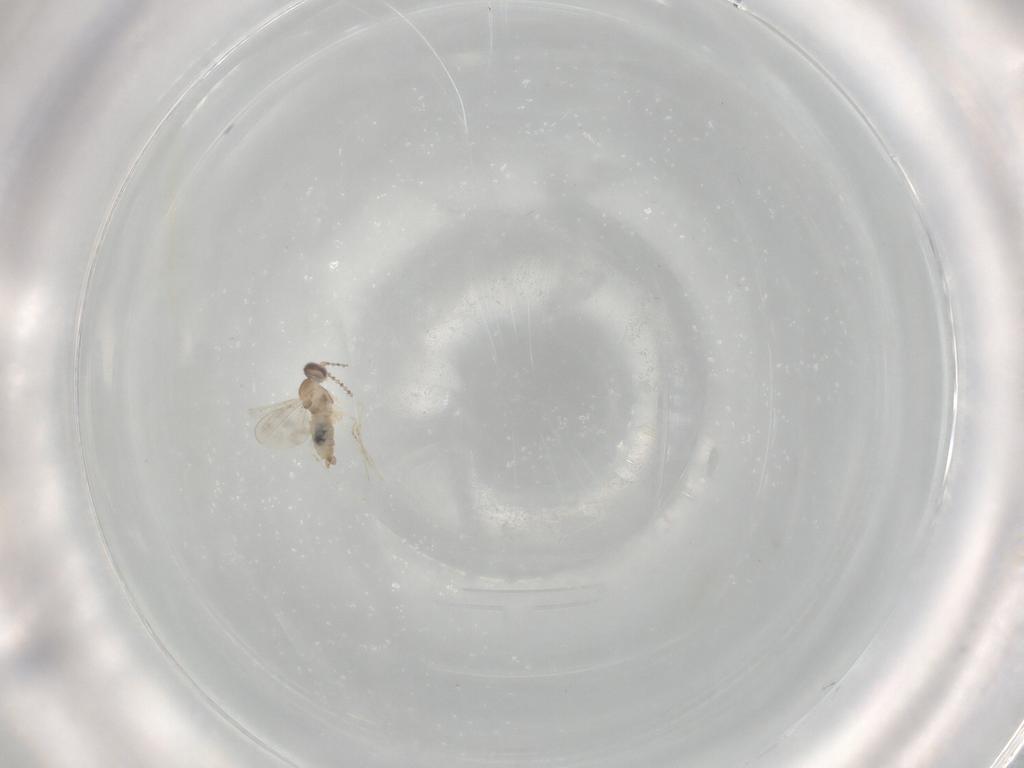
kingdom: Animalia
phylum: Arthropoda
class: Insecta
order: Diptera
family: Cecidomyiidae
